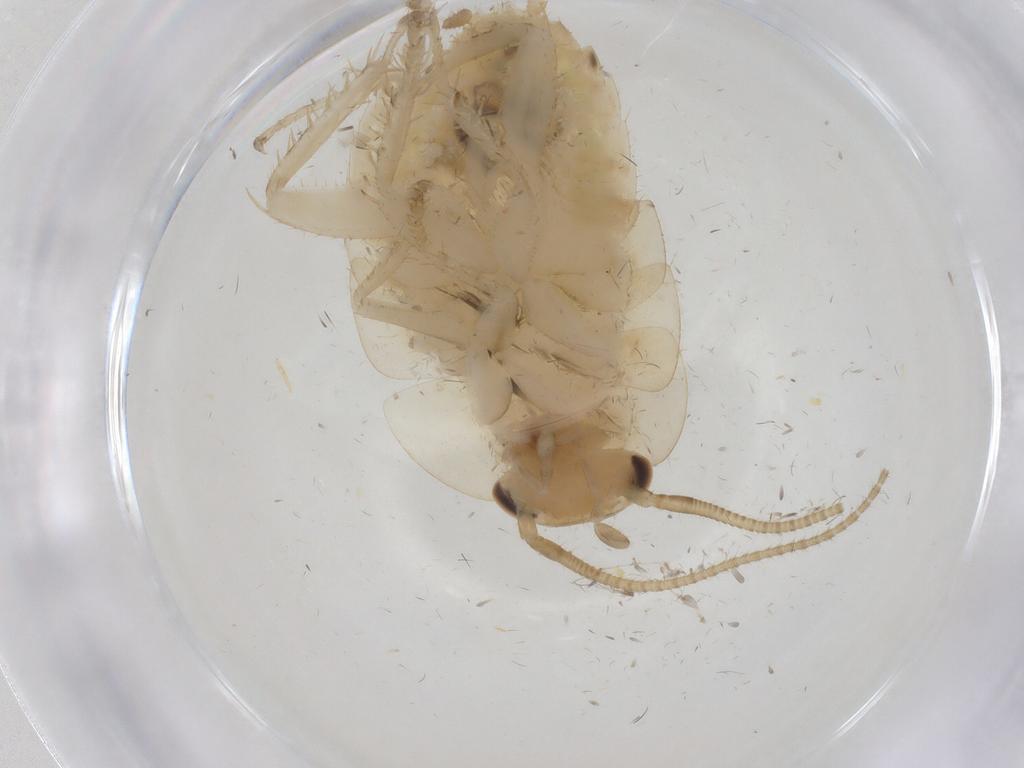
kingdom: Animalia
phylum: Arthropoda
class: Insecta
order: Blattodea
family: Ectobiidae
